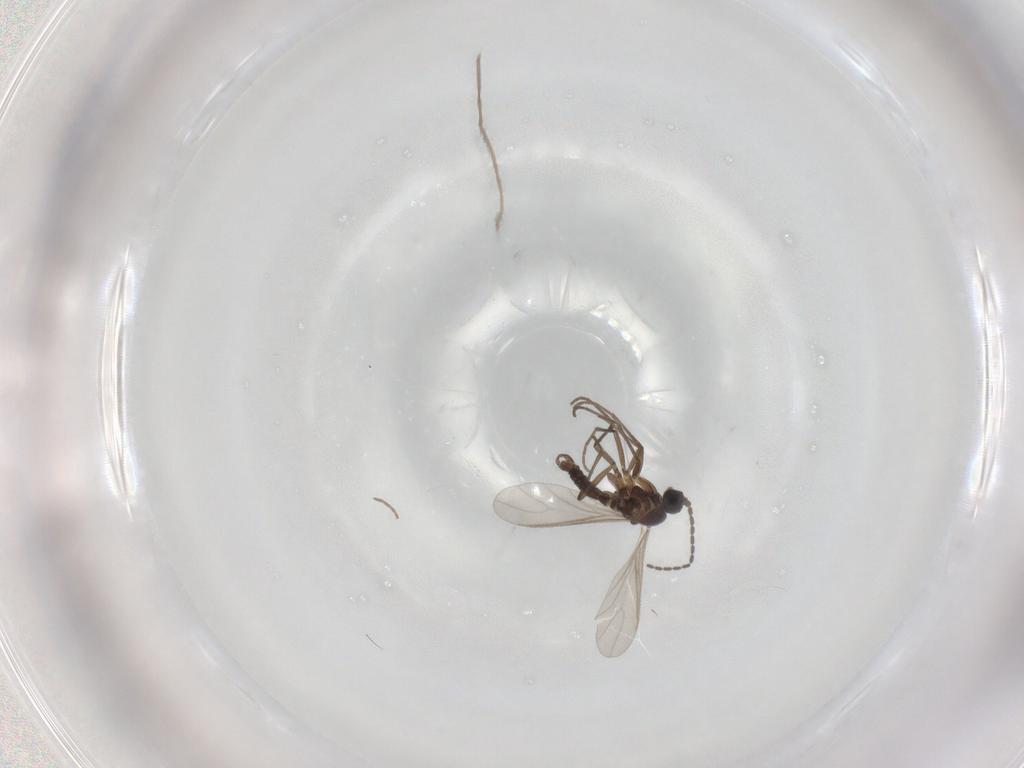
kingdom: Animalia
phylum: Arthropoda
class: Insecta
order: Diptera
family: Sciaridae
